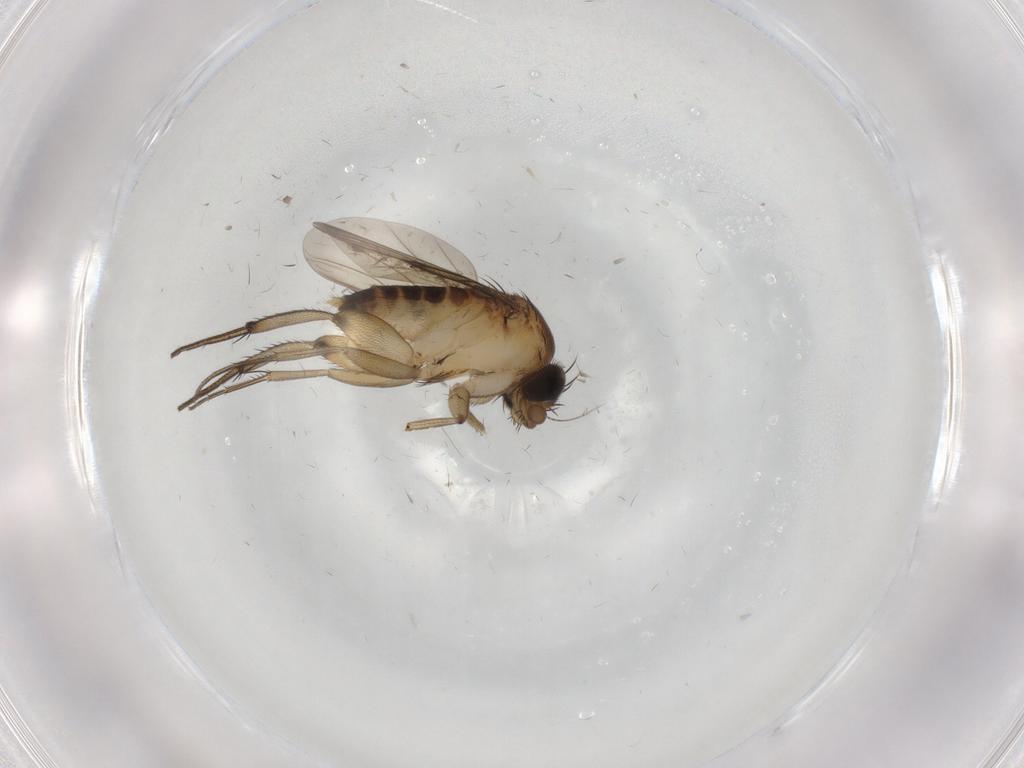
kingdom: Animalia
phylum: Arthropoda
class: Insecta
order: Diptera
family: Phoridae
